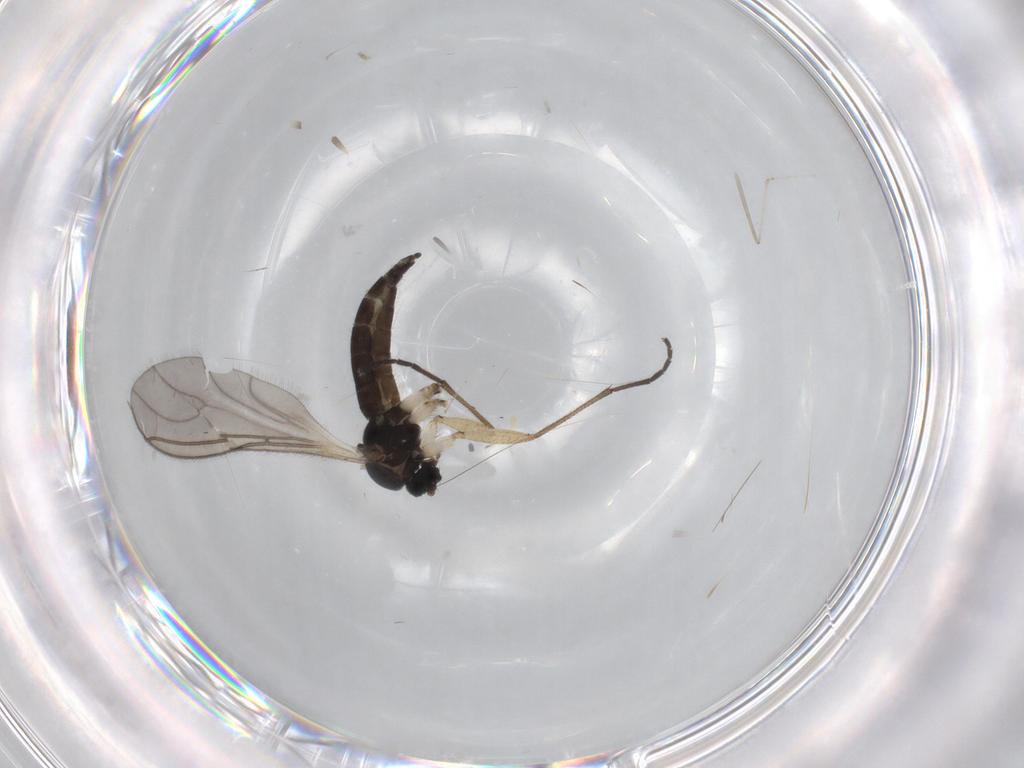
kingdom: Animalia
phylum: Arthropoda
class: Insecta
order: Diptera
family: Sciaridae
